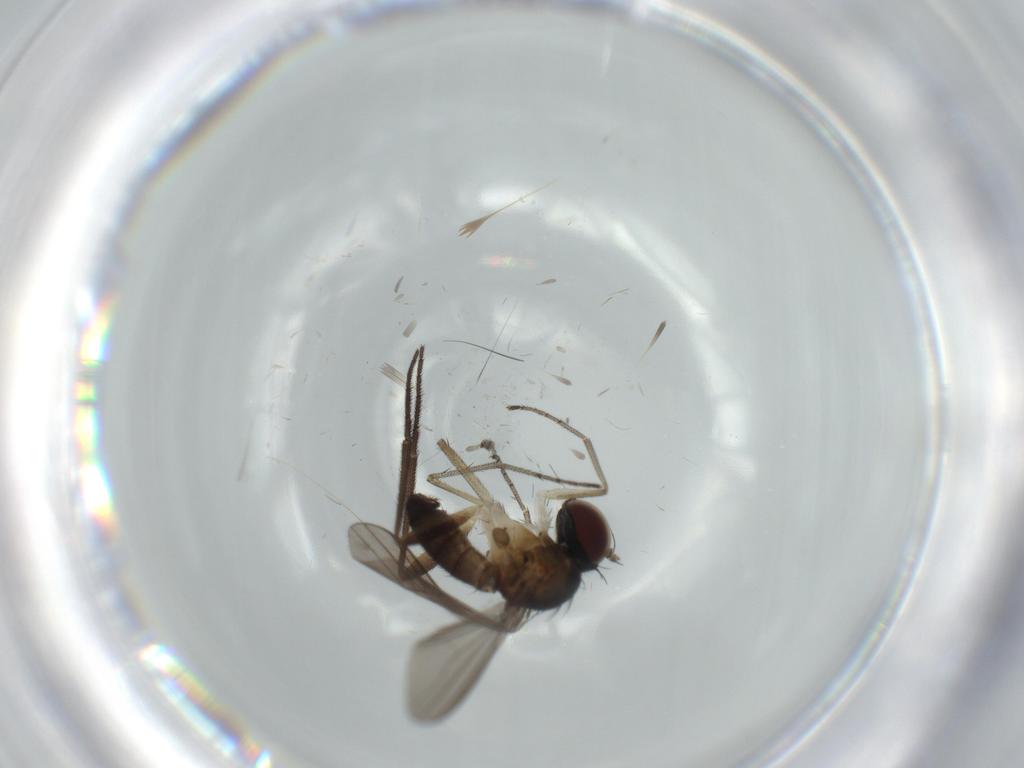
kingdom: Animalia
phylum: Arthropoda
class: Insecta
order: Diptera
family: Dolichopodidae
